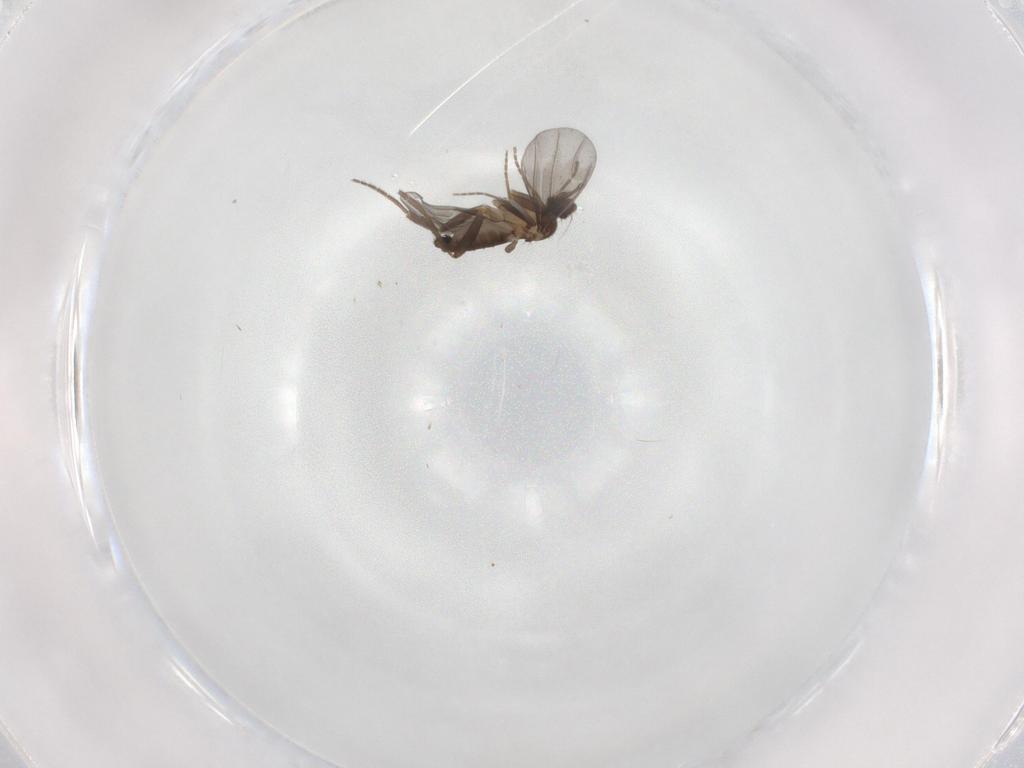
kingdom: Animalia
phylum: Arthropoda
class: Insecta
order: Diptera
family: Phoridae
